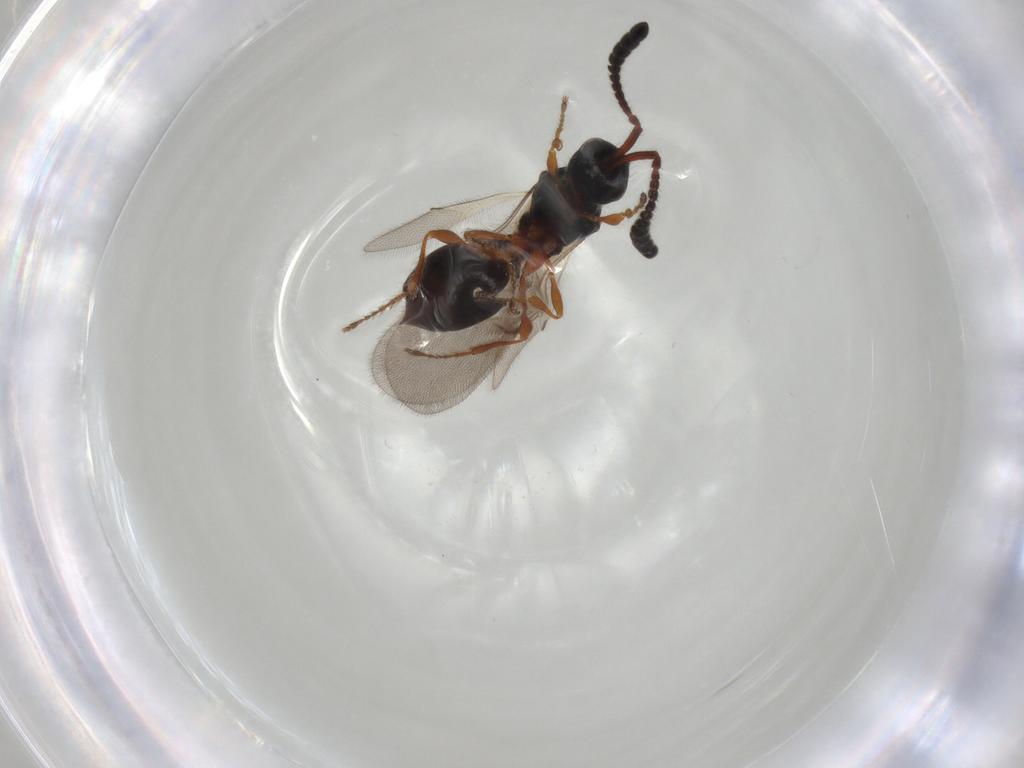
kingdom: Animalia
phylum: Arthropoda
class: Insecta
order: Hymenoptera
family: Diapriidae
